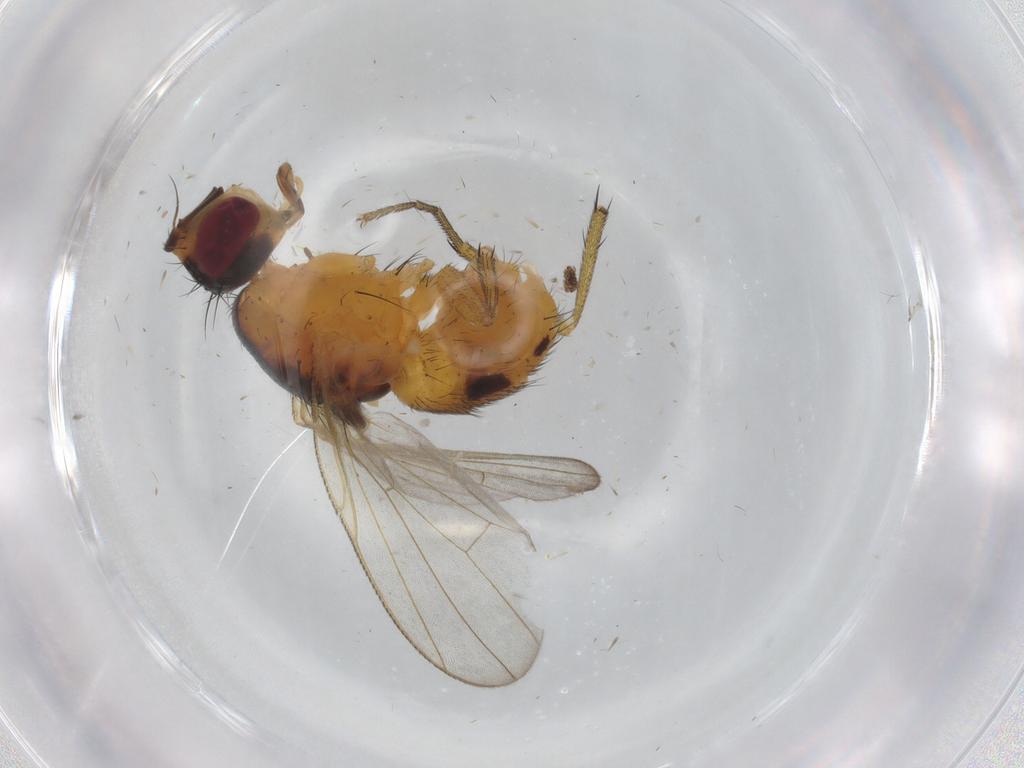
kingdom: Animalia
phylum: Arthropoda
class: Insecta
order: Diptera
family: Muscidae
